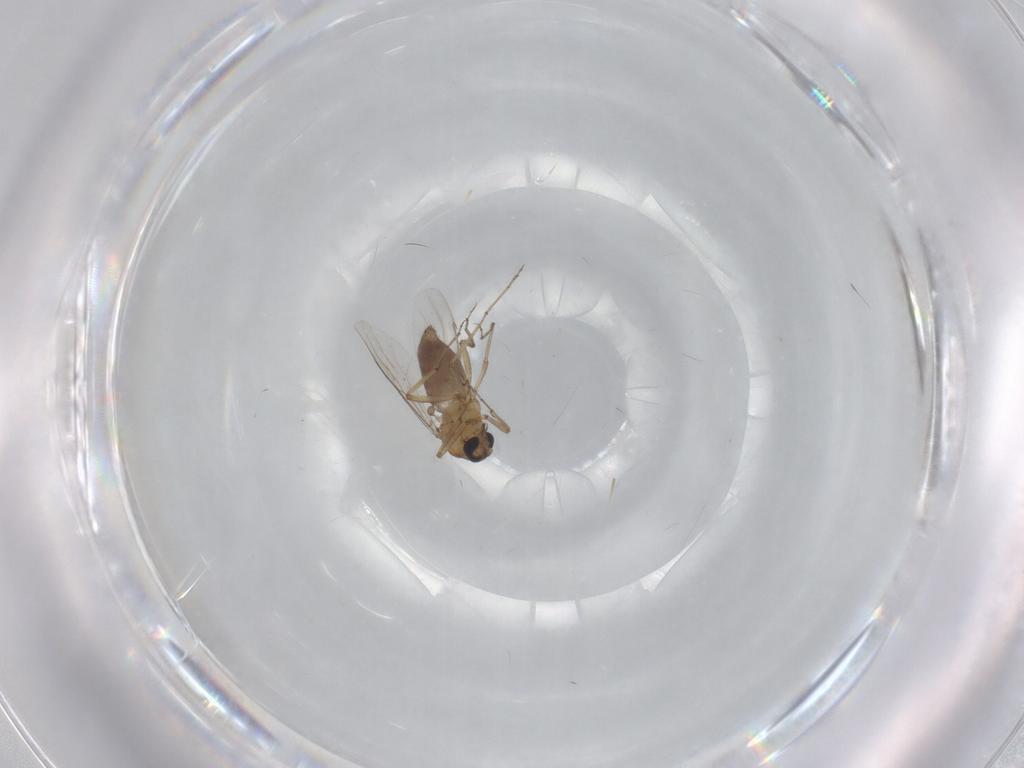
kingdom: Animalia
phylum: Arthropoda
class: Insecta
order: Diptera
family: Ceratopogonidae
